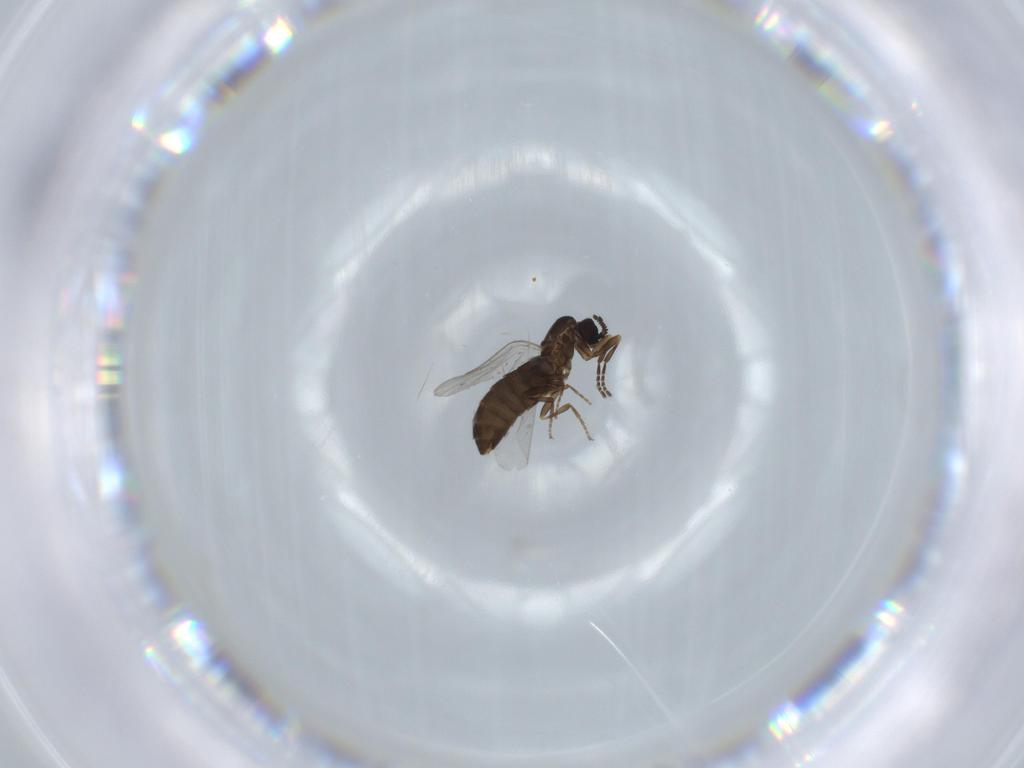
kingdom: Animalia
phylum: Arthropoda
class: Insecta
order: Diptera
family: Scatopsidae
